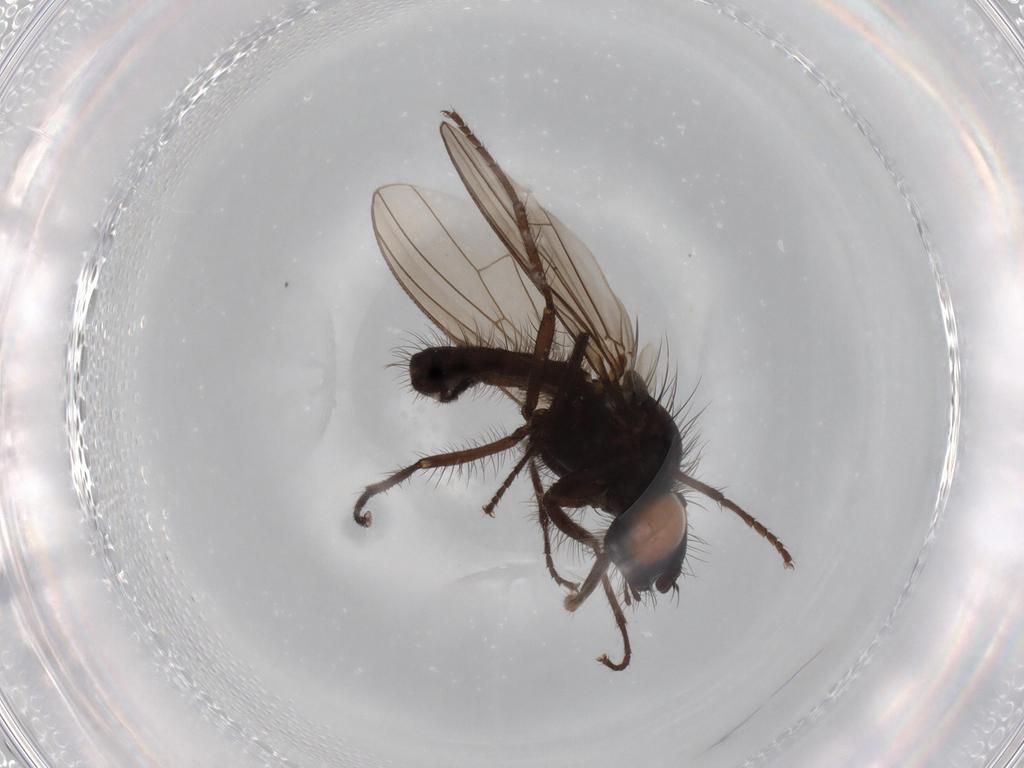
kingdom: Animalia
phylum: Arthropoda
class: Insecta
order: Diptera
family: Anthomyiidae
